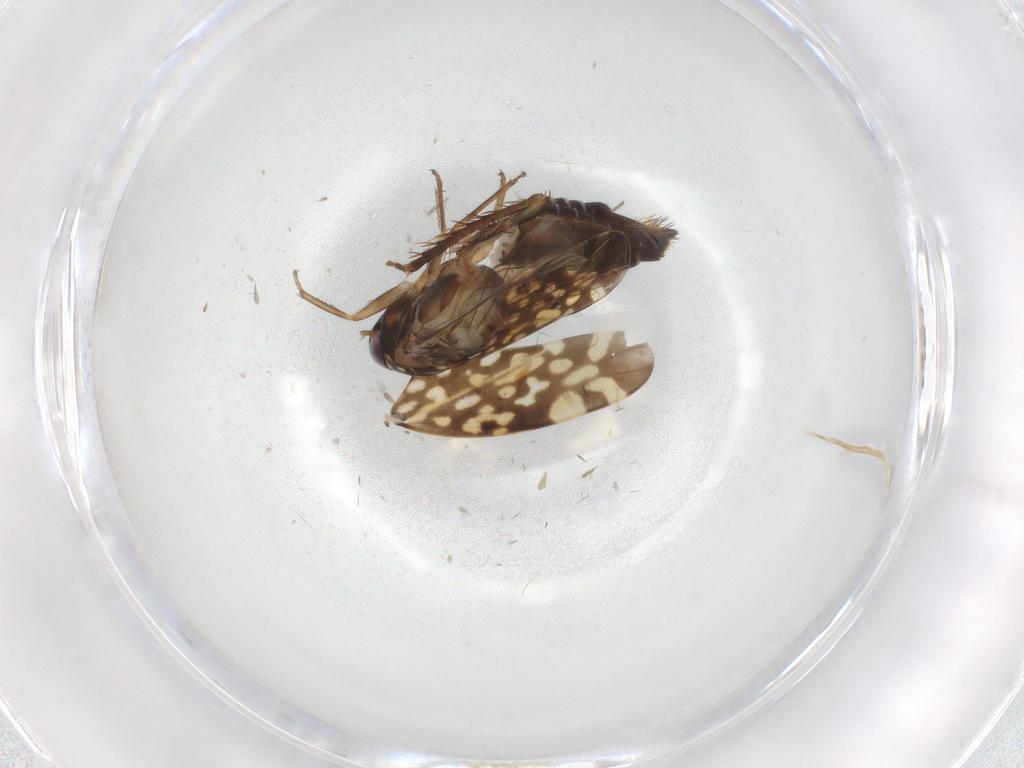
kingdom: Animalia
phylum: Arthropoda
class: Insecta
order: Hemiptera
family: Cicadellidae
